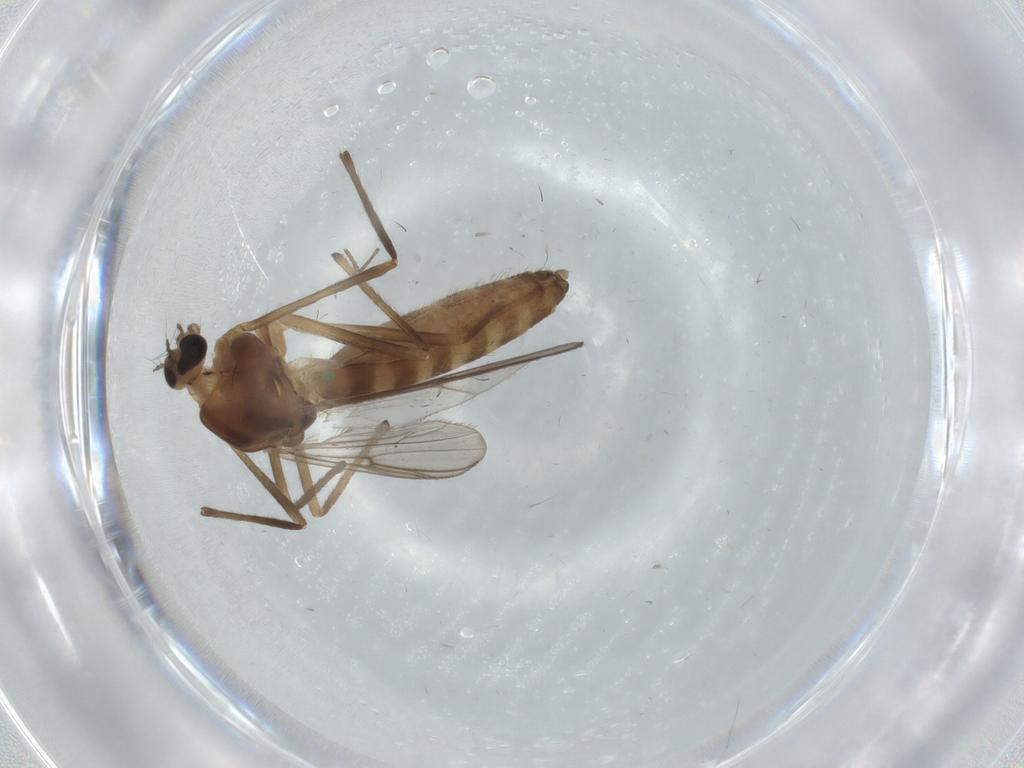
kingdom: Animalia
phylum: Arthropoda
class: Insecta
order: Diptera
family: Chironomidae
